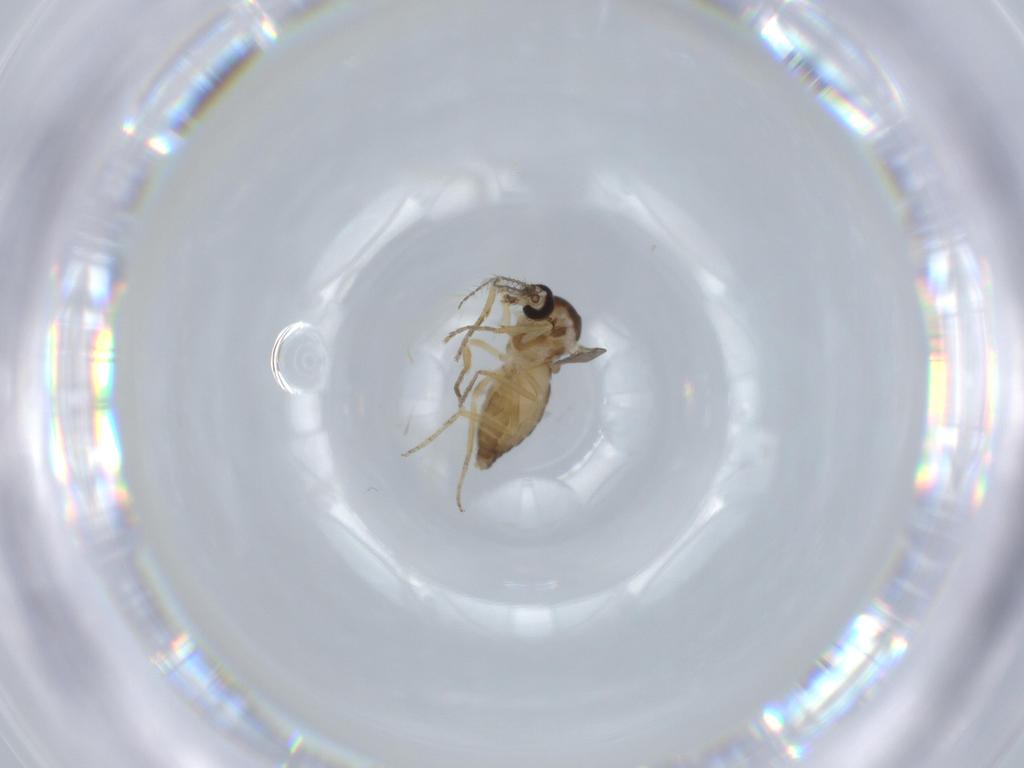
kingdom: Animalia
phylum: Arthropoda
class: Insecta
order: Diptera
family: Ceratopogonidae
